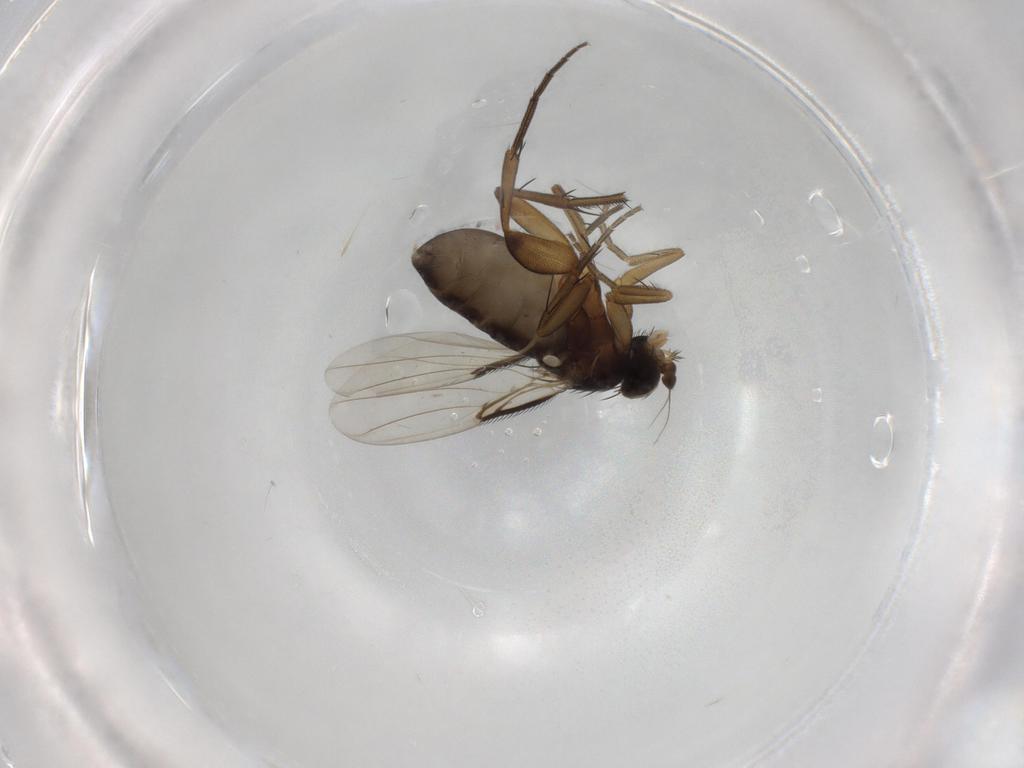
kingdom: Animalia
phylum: Arthropoda
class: Insecta
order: Diptera
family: Phoridae
